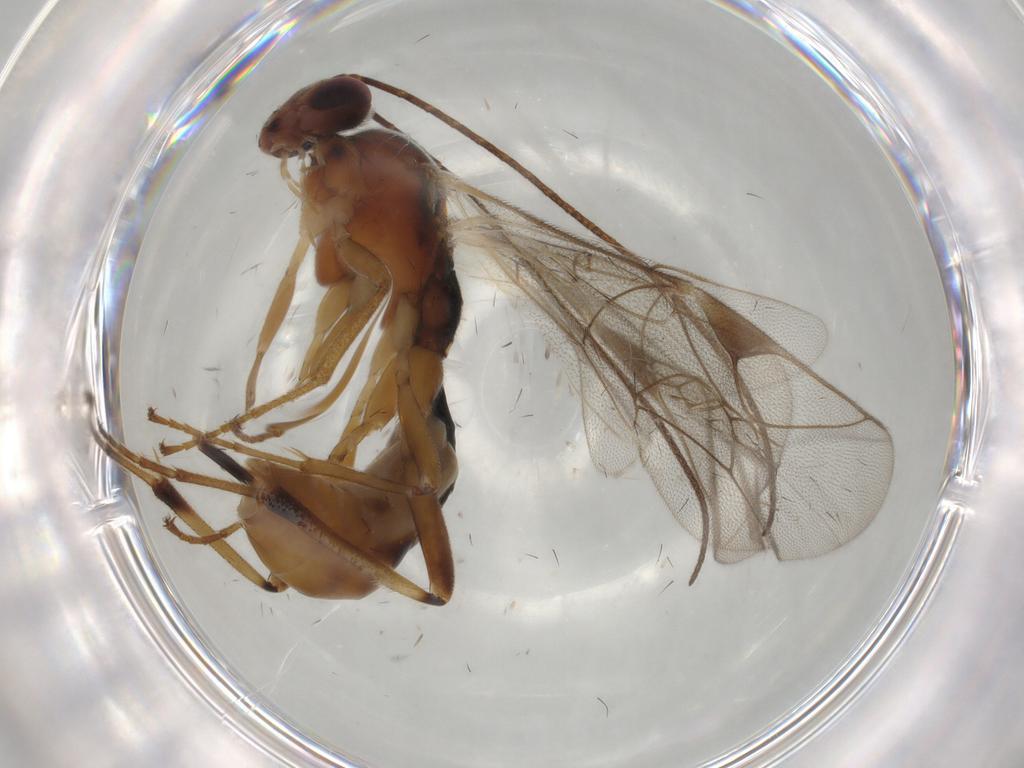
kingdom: Animalia
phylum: Arthropoda
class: Insecta
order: Hymenoptera
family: Ichneumonidae
